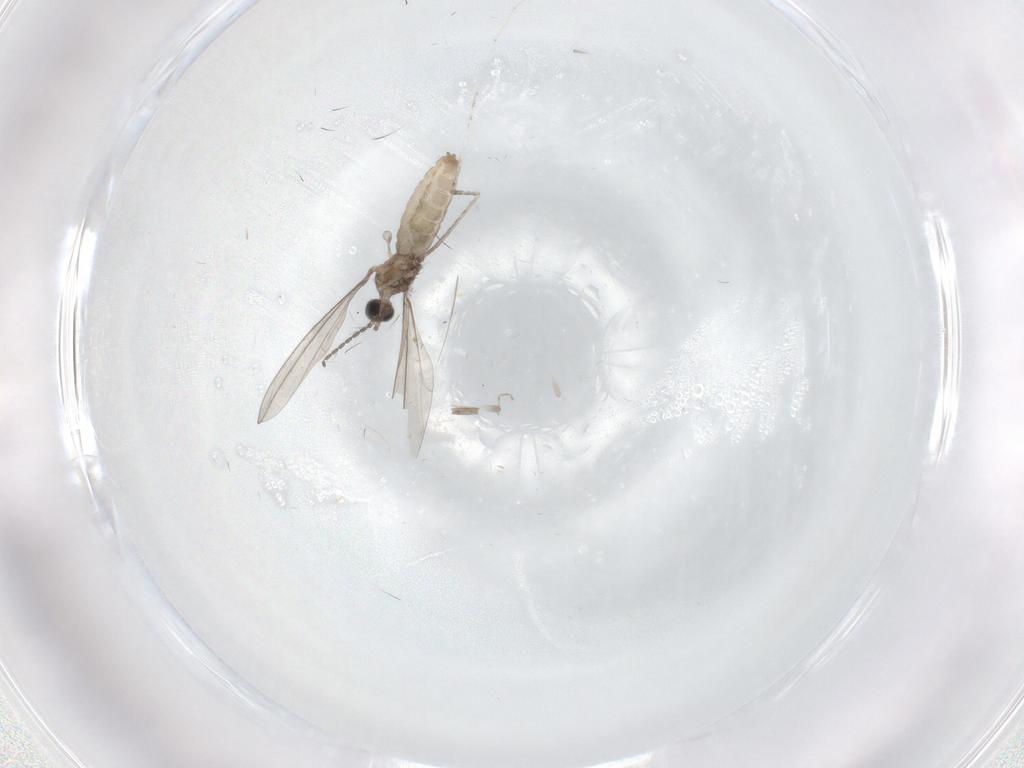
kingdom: Animalia
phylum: Arthropoda
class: Insecta
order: Diptera
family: Cecidomyiidae
